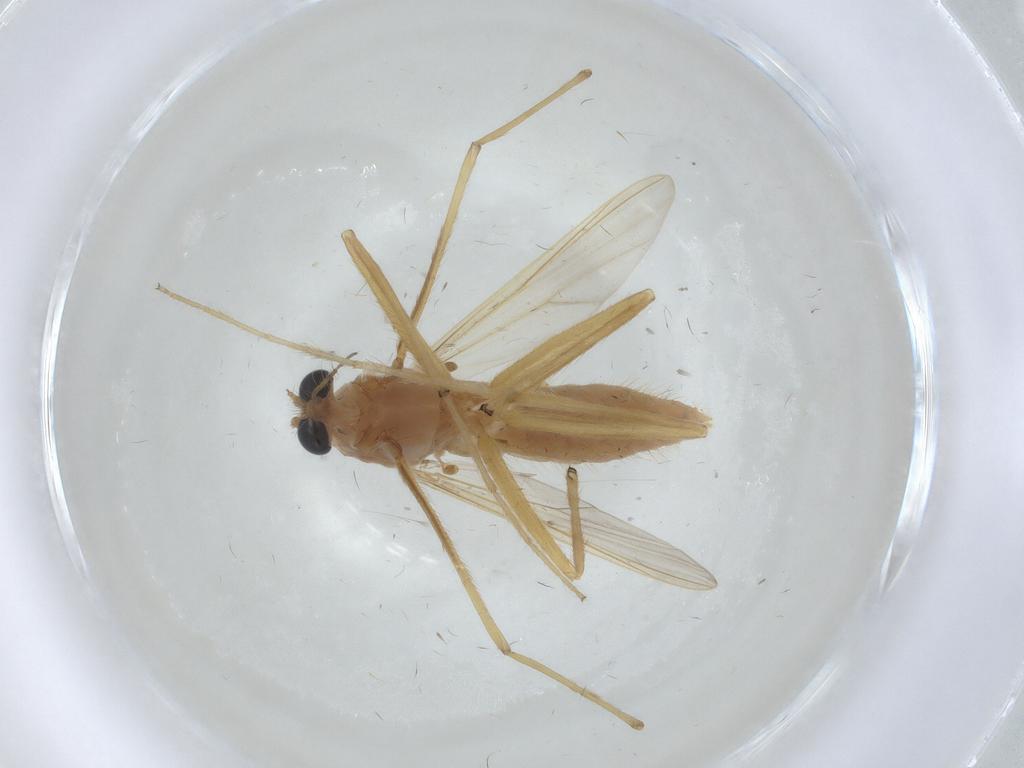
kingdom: Animalia
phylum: Arthropoda
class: Insecta
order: Diptera
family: Chironomidae
